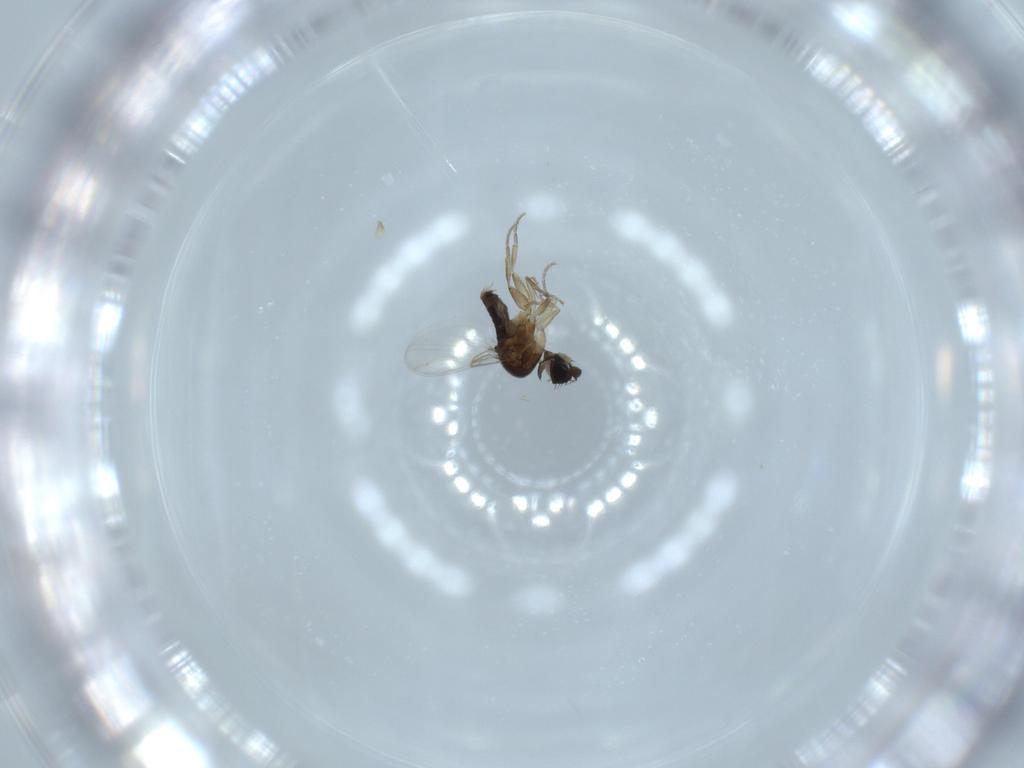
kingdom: Animalia
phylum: Arthropoda
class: Insecta
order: Diptera
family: Phoridae
